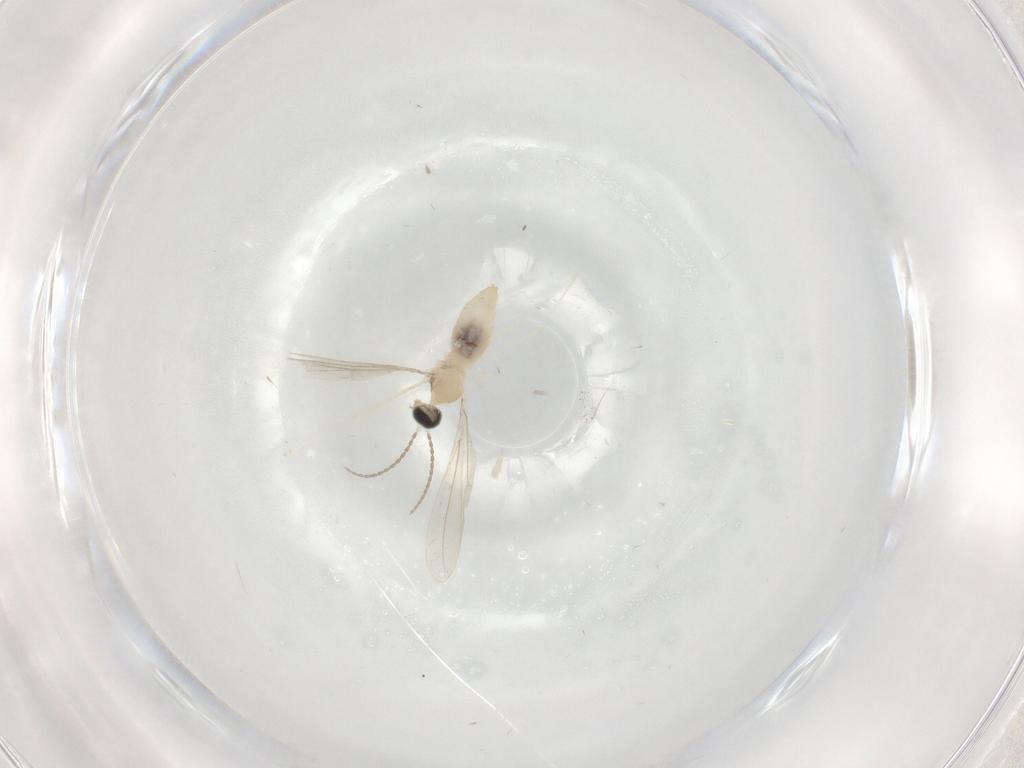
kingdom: Animalia
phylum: Arthropoda
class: Insecta
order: Diptera
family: Cecidomyiidae
